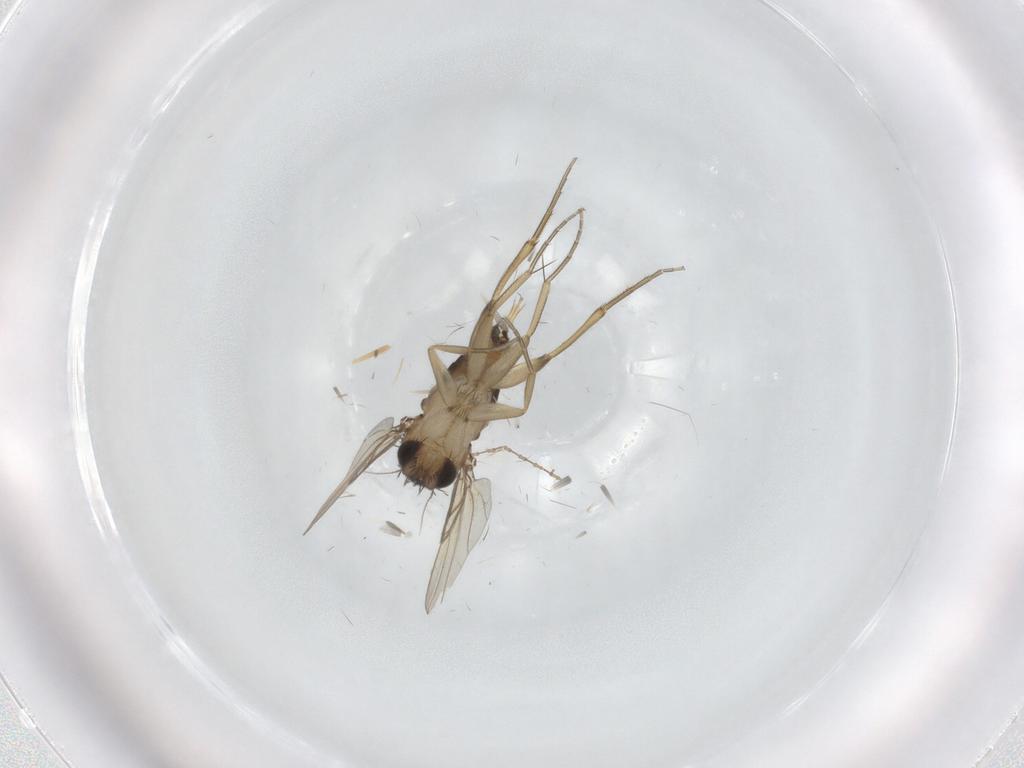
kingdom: Animalia
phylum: Arthropoda
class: Insecta
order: Diptera
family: Phoridae
